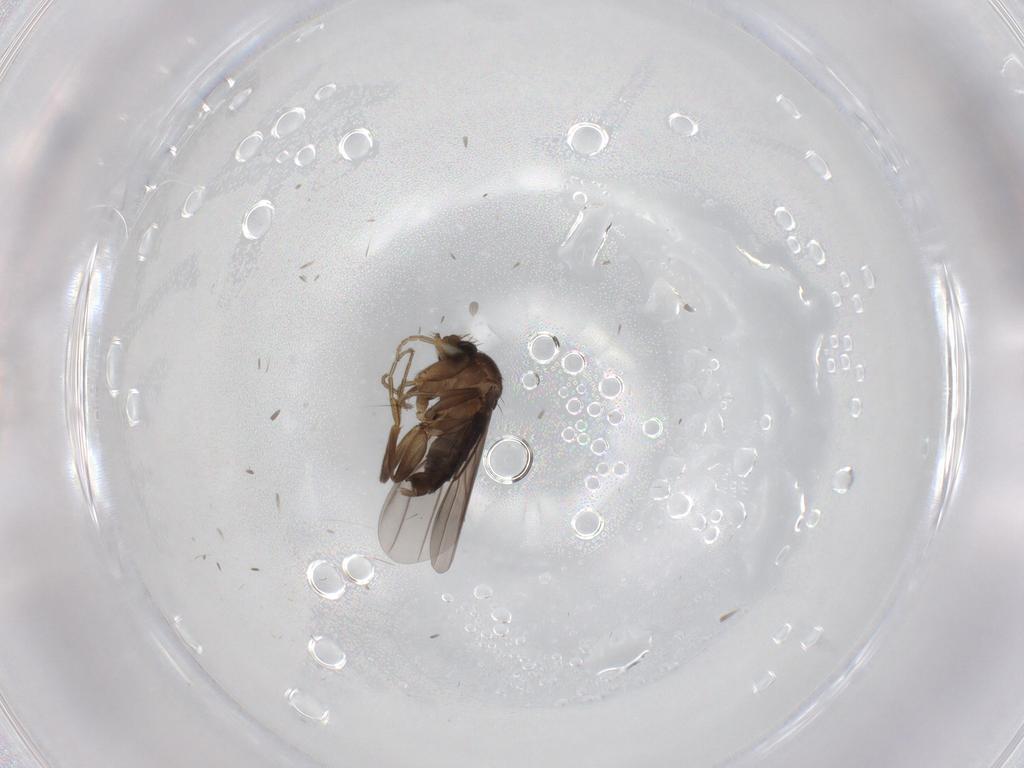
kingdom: Animalia
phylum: Arthropoda
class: Insecta
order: Diptera
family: Phoridae
